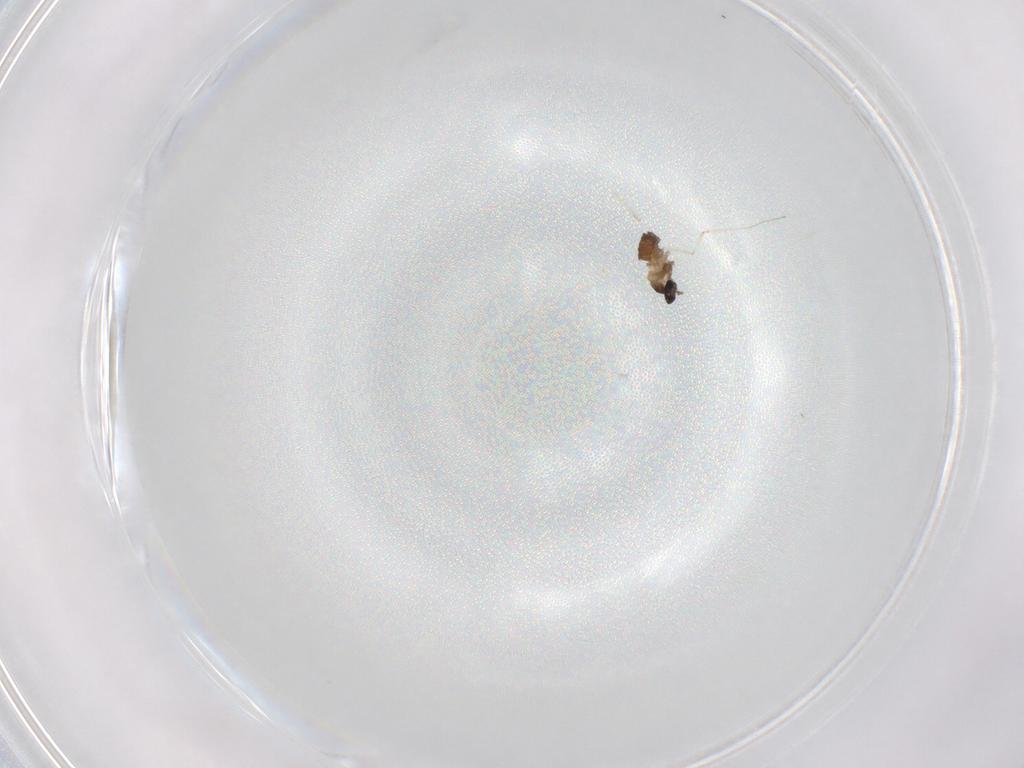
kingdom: Animalia
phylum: Arthropoda
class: Insecta
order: Diptera
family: Cecidomyiidae
